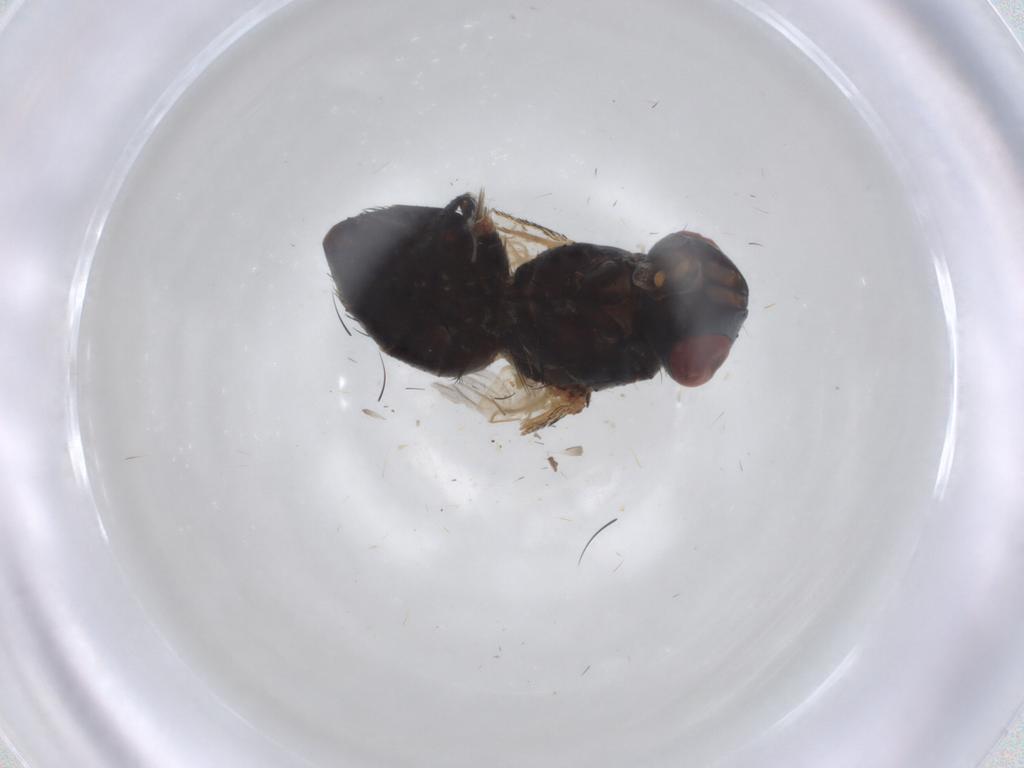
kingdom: Animalia
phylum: Arthropoda
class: Insecta
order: Diptera
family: Sarcophagidae
